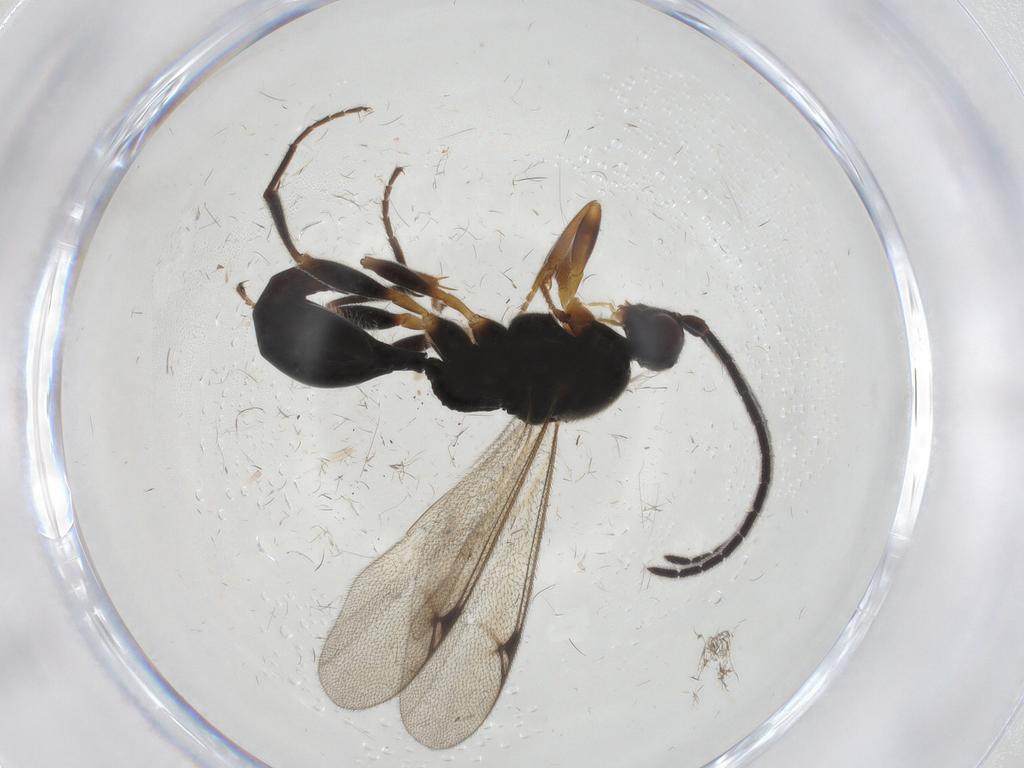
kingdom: Animalia
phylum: Arthropoda
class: Insecta
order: Hymenoptera
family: Proctotrupidae
